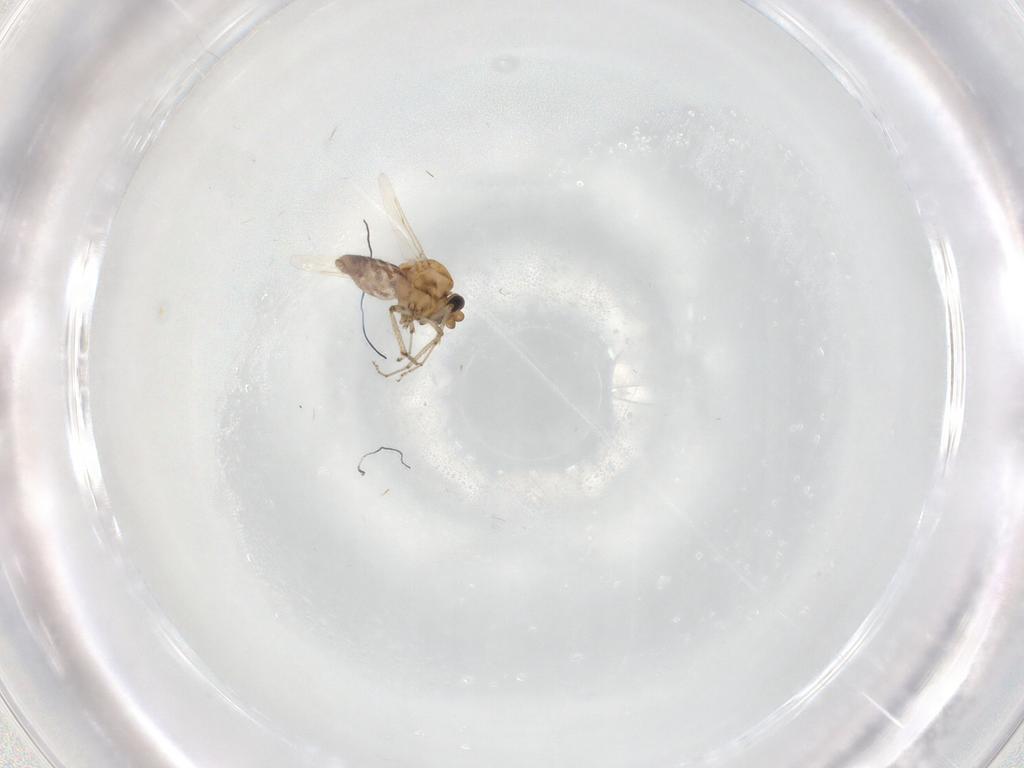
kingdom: Animalia
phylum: Arthropoda
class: Insecta
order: Diptera
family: Ceratopogonidae
